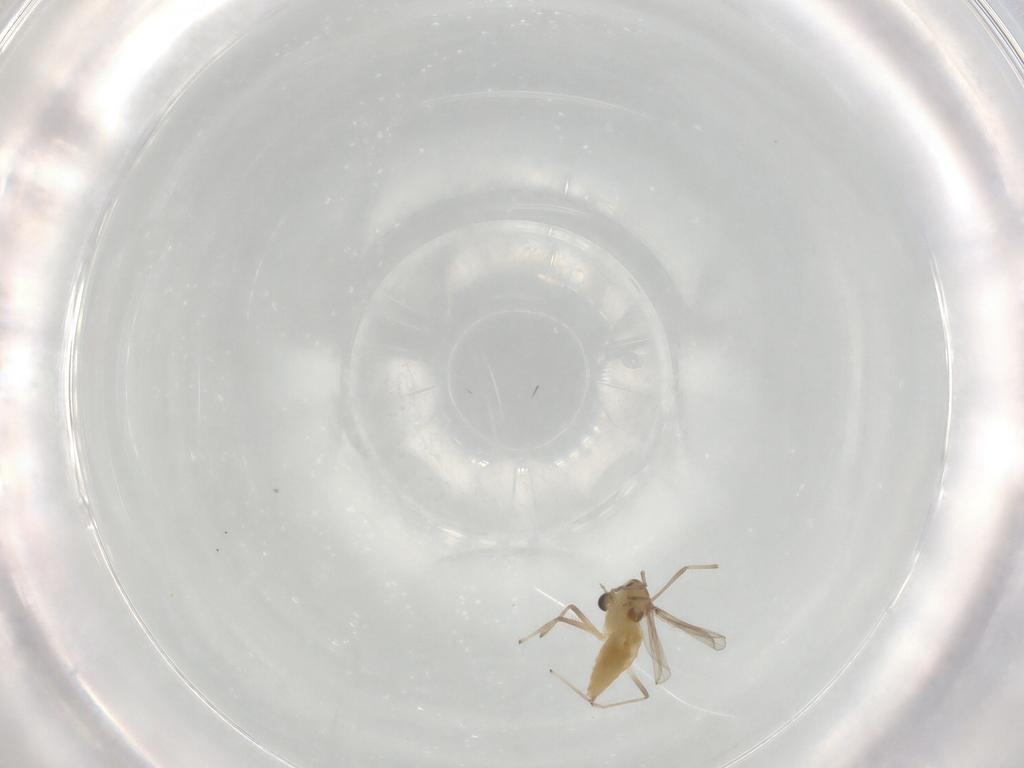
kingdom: Animalia
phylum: Arthropoda
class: Insecta
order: Diptera
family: Chironomidae
